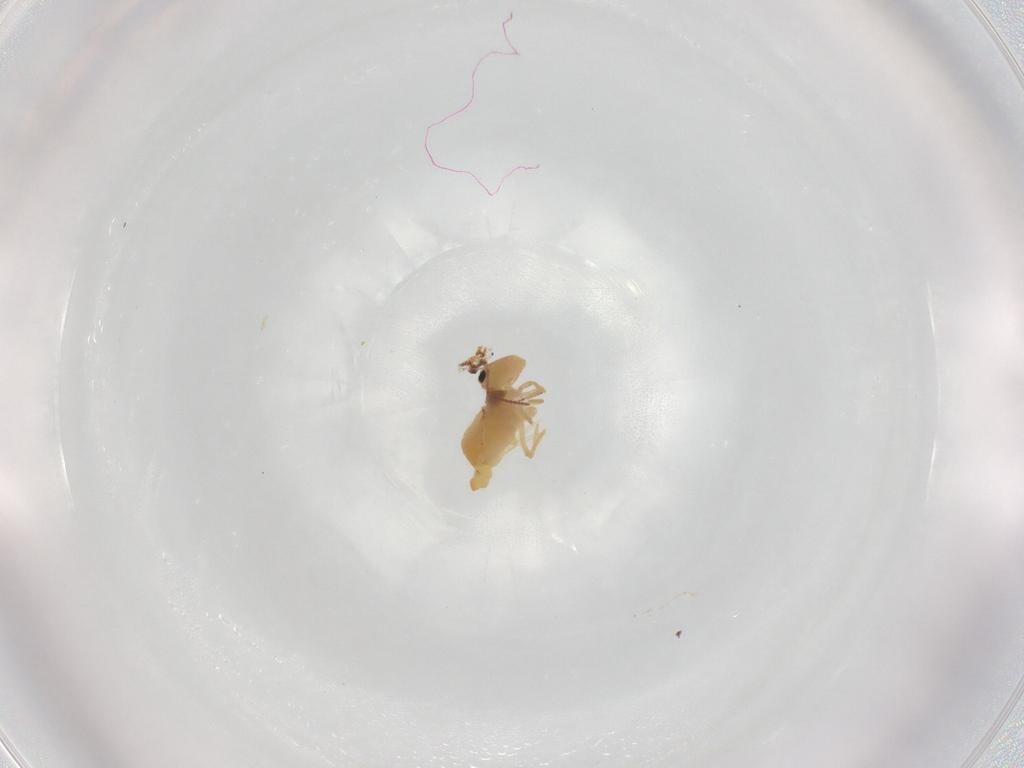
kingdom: Animalia
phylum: Arthropoda
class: Collembola
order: Symphypleona
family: Bourletiellidae
